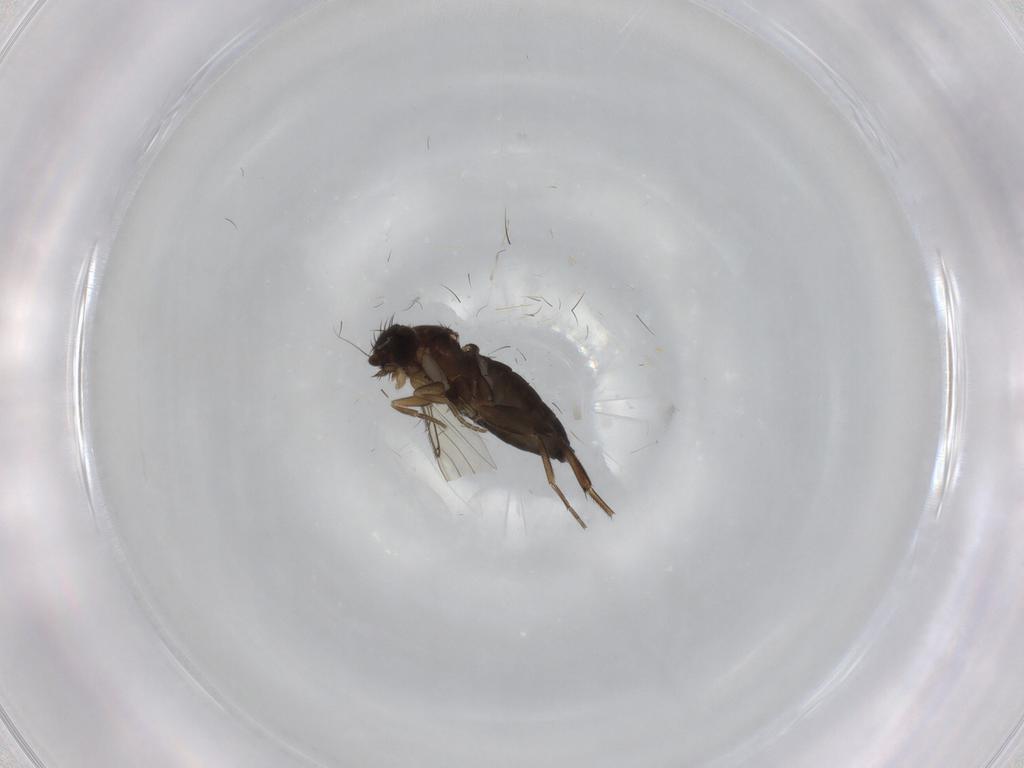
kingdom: Animalia
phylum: Arthropoda
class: Insecta
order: Diptera
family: Phoridae
